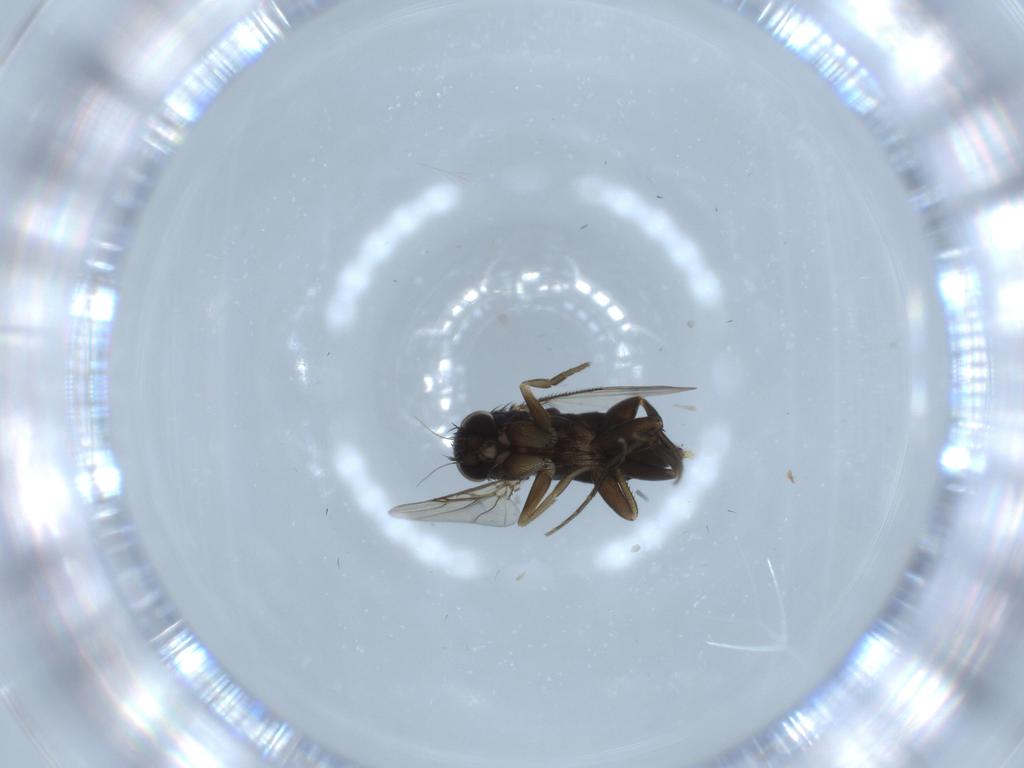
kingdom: Animalia
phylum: Arthropoda
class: Insecta
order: Diptera
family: Phoridae
